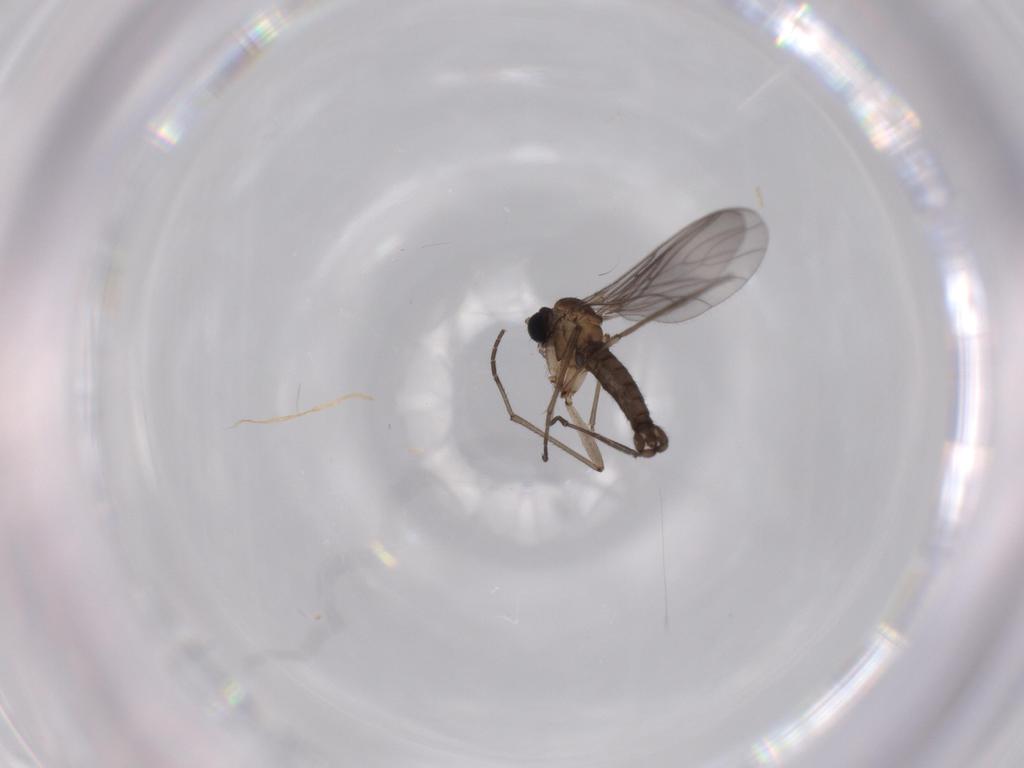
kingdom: Animalia
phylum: Arthropoda
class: Insecta
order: Diptera
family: Sciaridae
